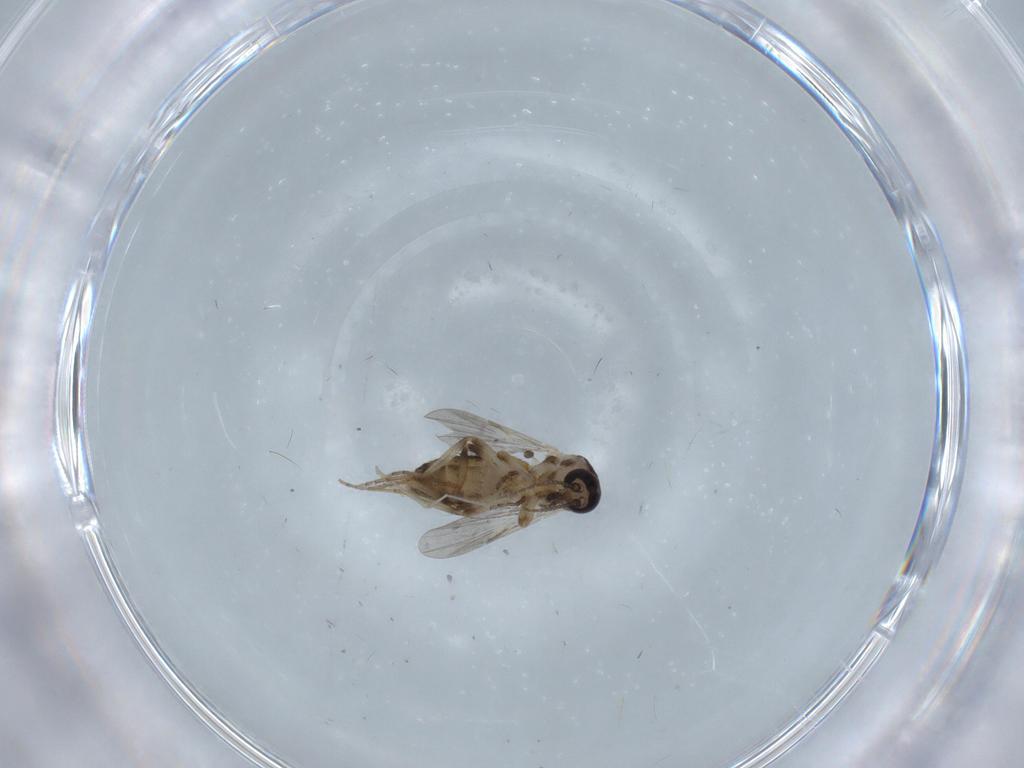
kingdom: Animalia
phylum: Arthropoda
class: Insecta
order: Diptera
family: Ceratopogonidae
